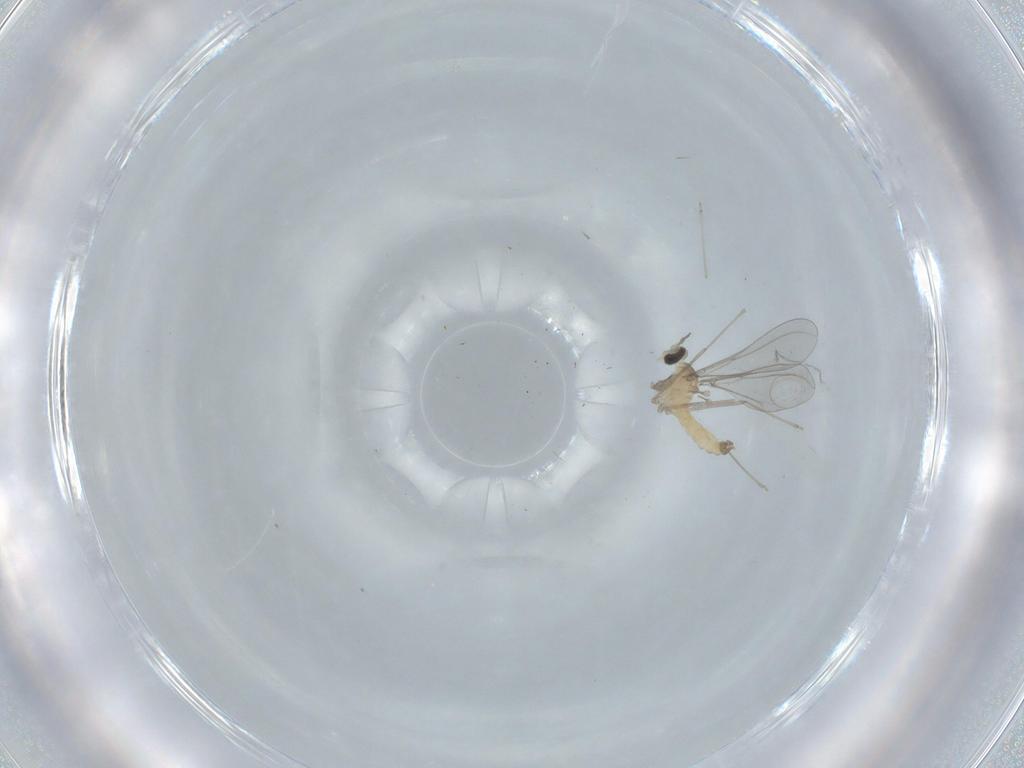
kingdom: Animalia
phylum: Arthropoda
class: Insecta
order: Diptera
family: Cecidomyiidae
